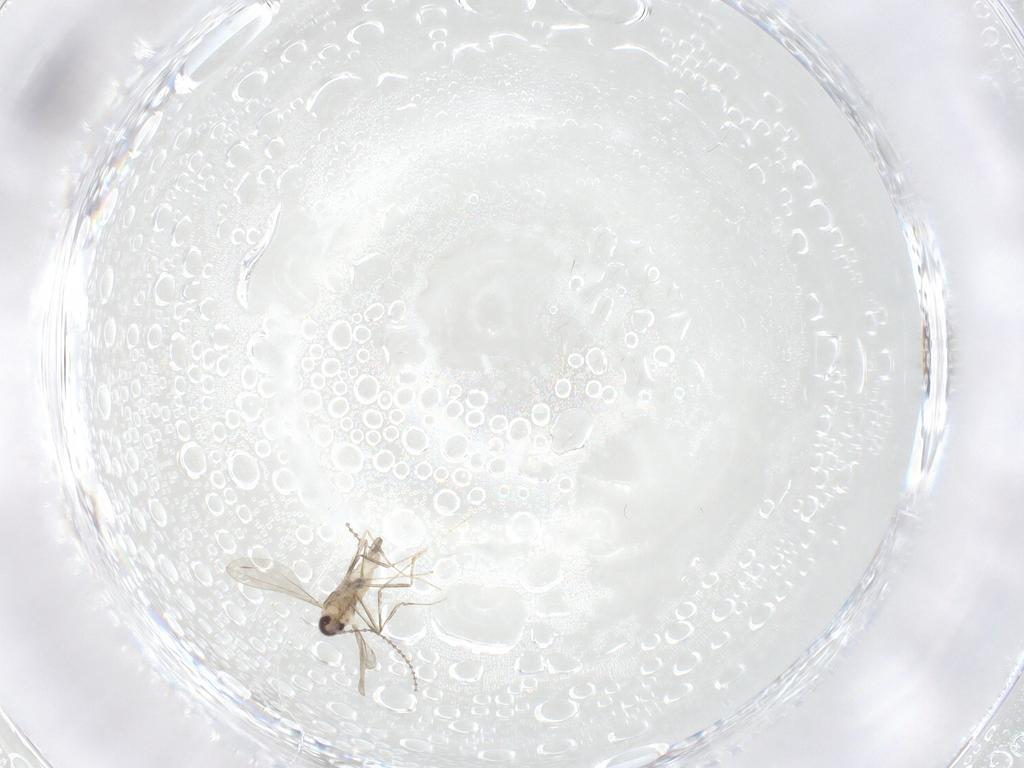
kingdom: Animalia
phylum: Arthropoda
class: Insecta
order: Diptera
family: Cecidomyiidae
